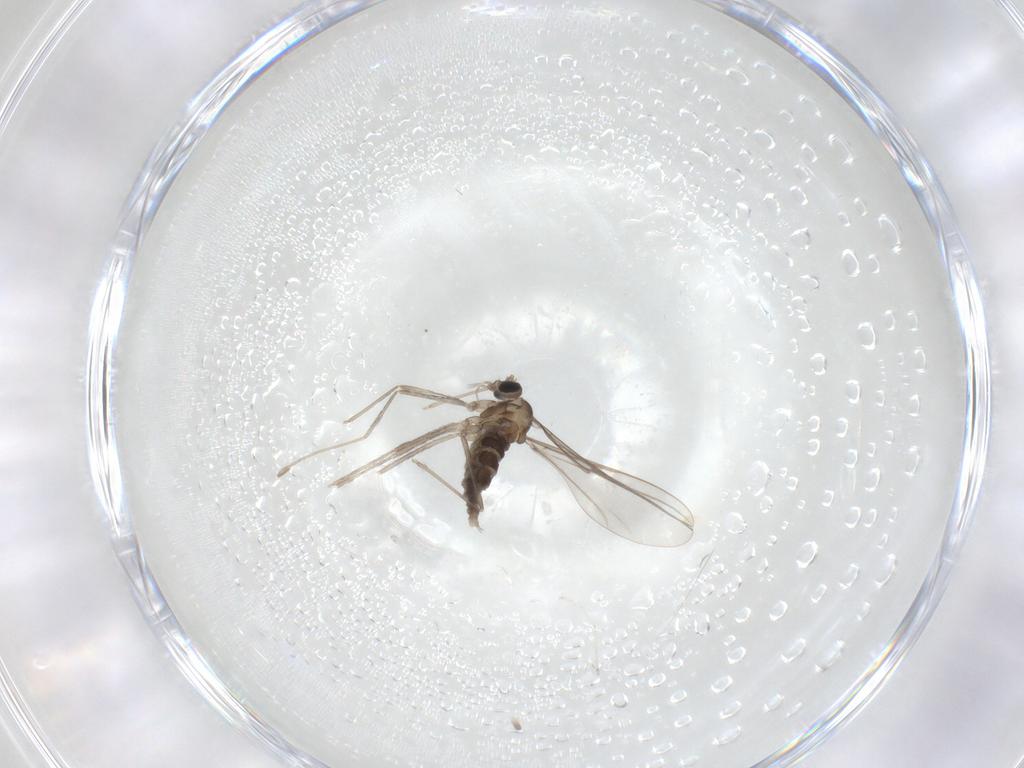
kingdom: Animalia
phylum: Arthropoda
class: Insecta
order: Diptera
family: Cecidomyiidae
